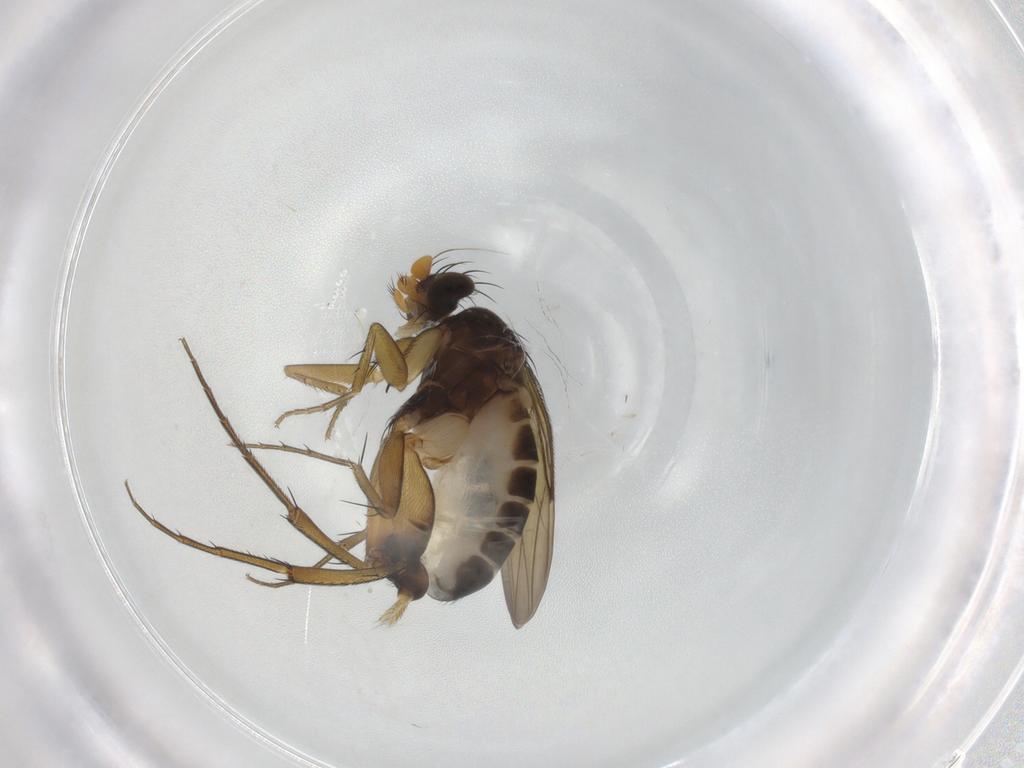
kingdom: Animalia
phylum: Arthropoda
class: Insecta
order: Diptera
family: Phoridae
